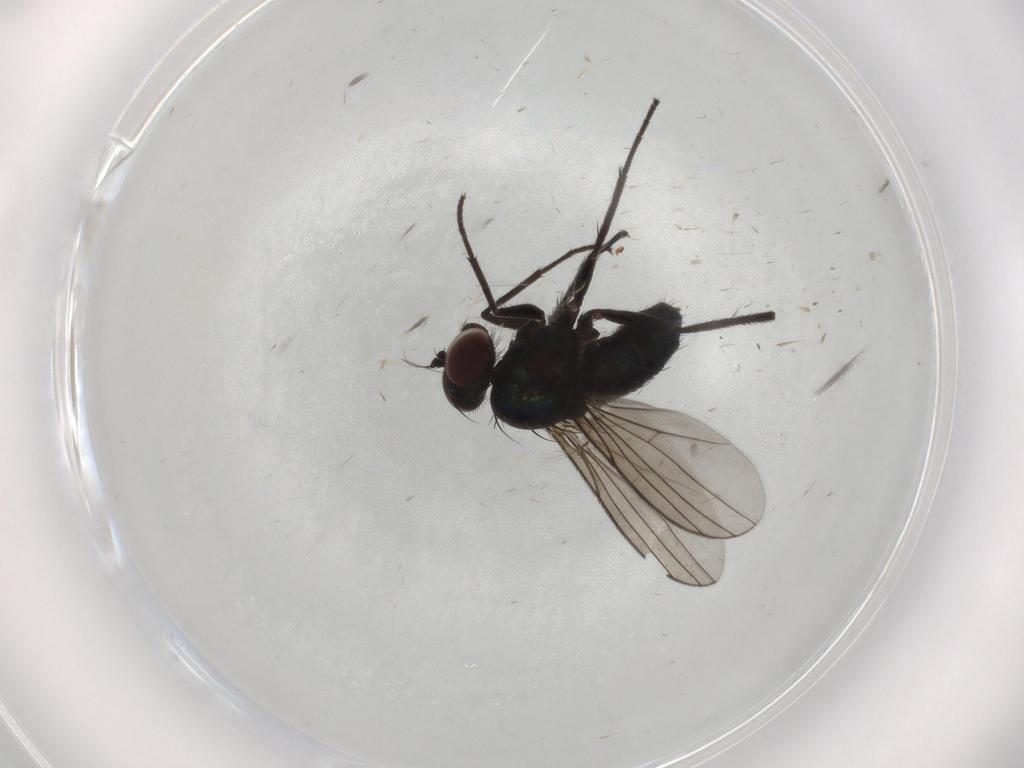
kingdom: Animalia
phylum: Arthropoda
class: Insecta
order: Diptera
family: Dolichopodidae
